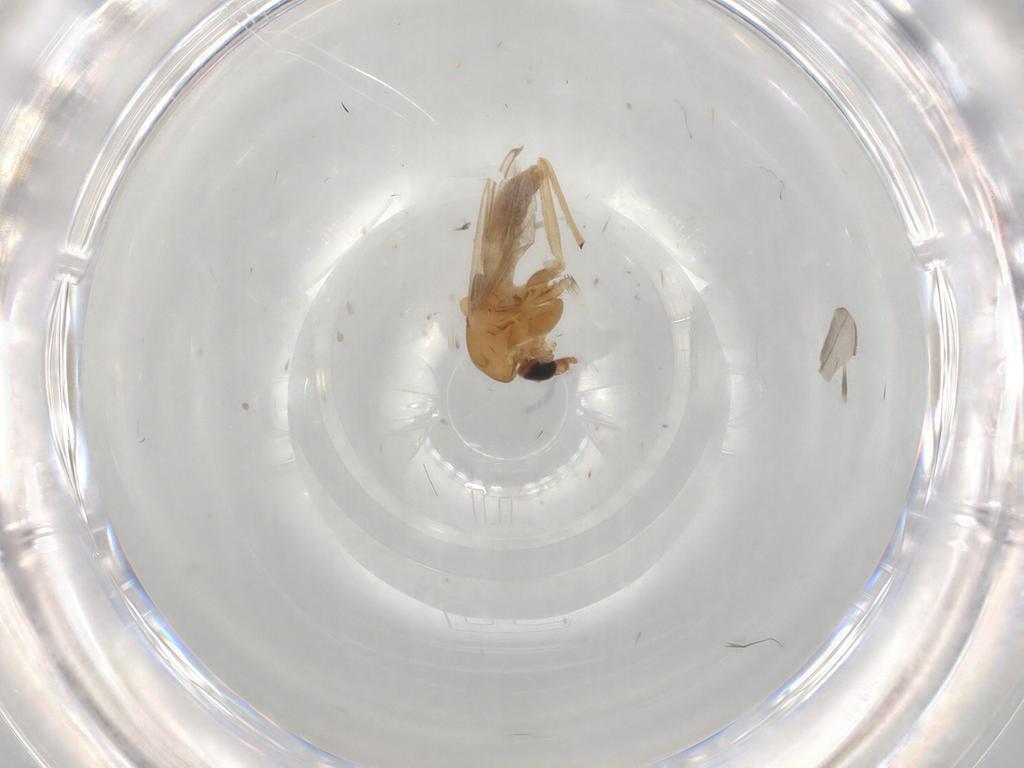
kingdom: Animalia
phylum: Arthropoda
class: Insecta
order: Diptera
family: Chironomidae
